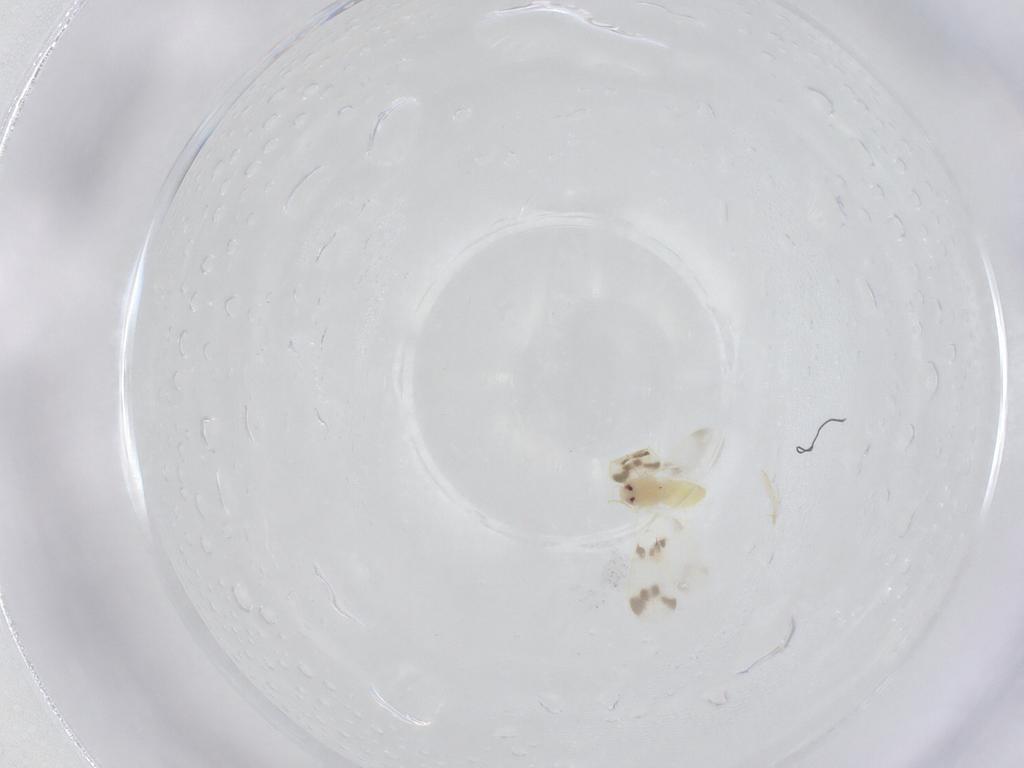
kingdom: Animalia
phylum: Arthropoda
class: Insecta
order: Hemiptera
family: Aleyrodidae
